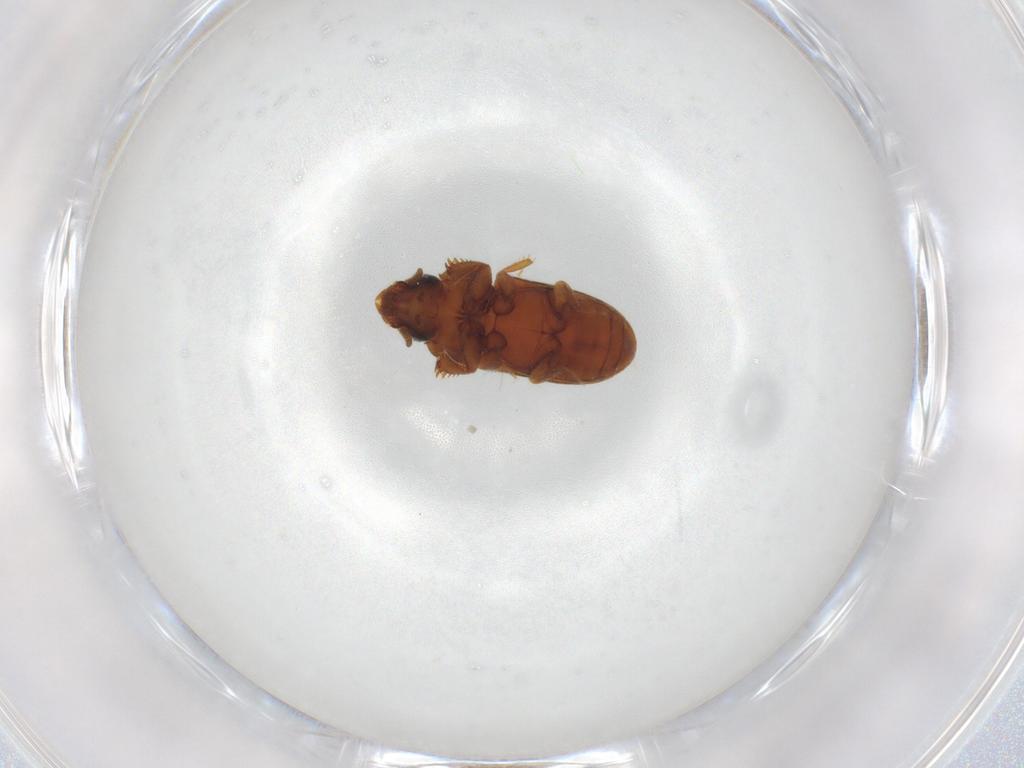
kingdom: Animalia
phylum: Arthropoda
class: Insecta
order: Coleoptera
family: Heteroceridae
